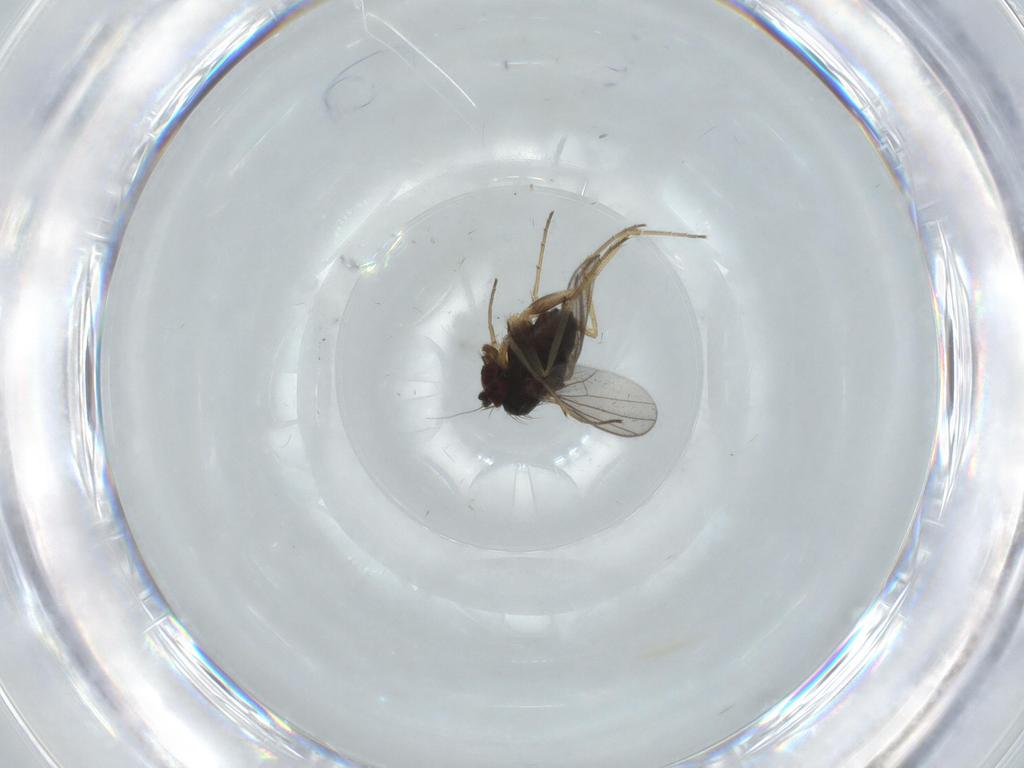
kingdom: Animalia
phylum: Arthropoda
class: Insecta
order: Diptera
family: Dolichopodidae
